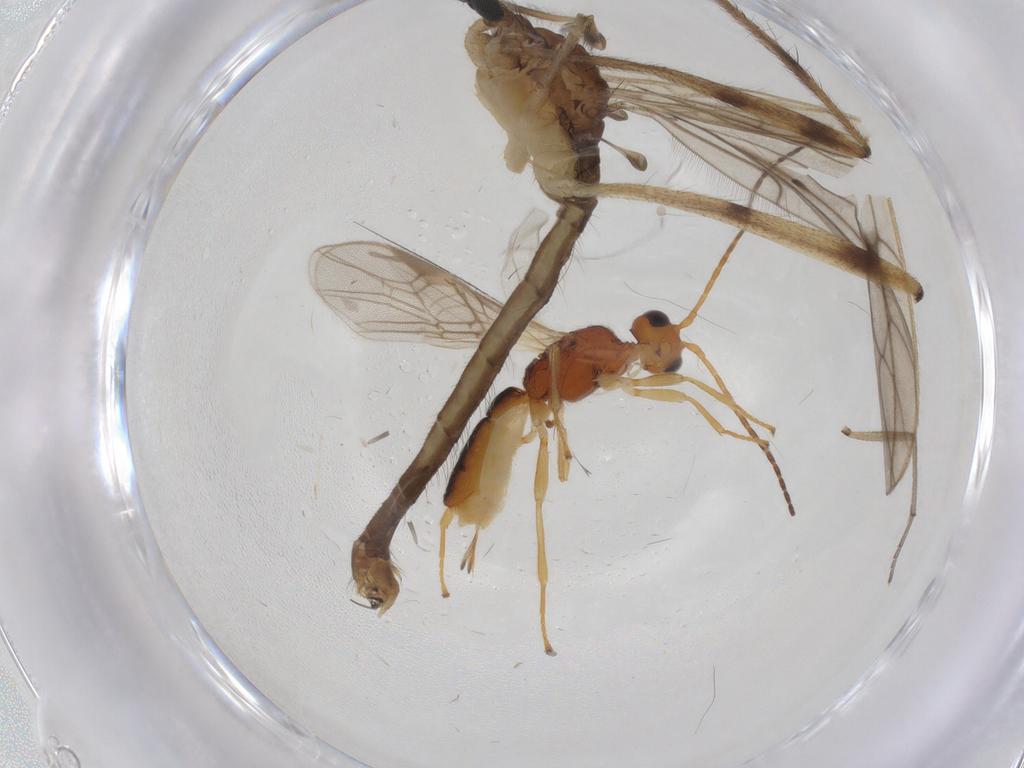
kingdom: Animalia
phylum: Arthropoda
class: Insecta
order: Diptera
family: Limoniidae
